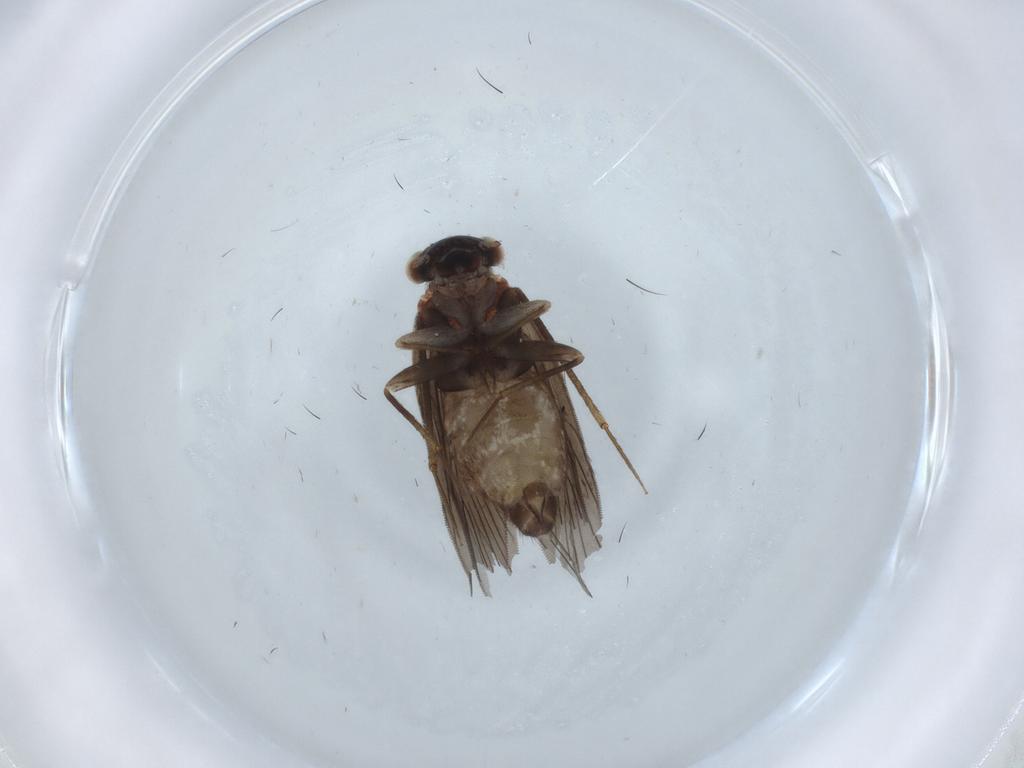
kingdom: Animalia
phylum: Arthropoda
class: Insecta
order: Psocodea
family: Lepidopsocidae
